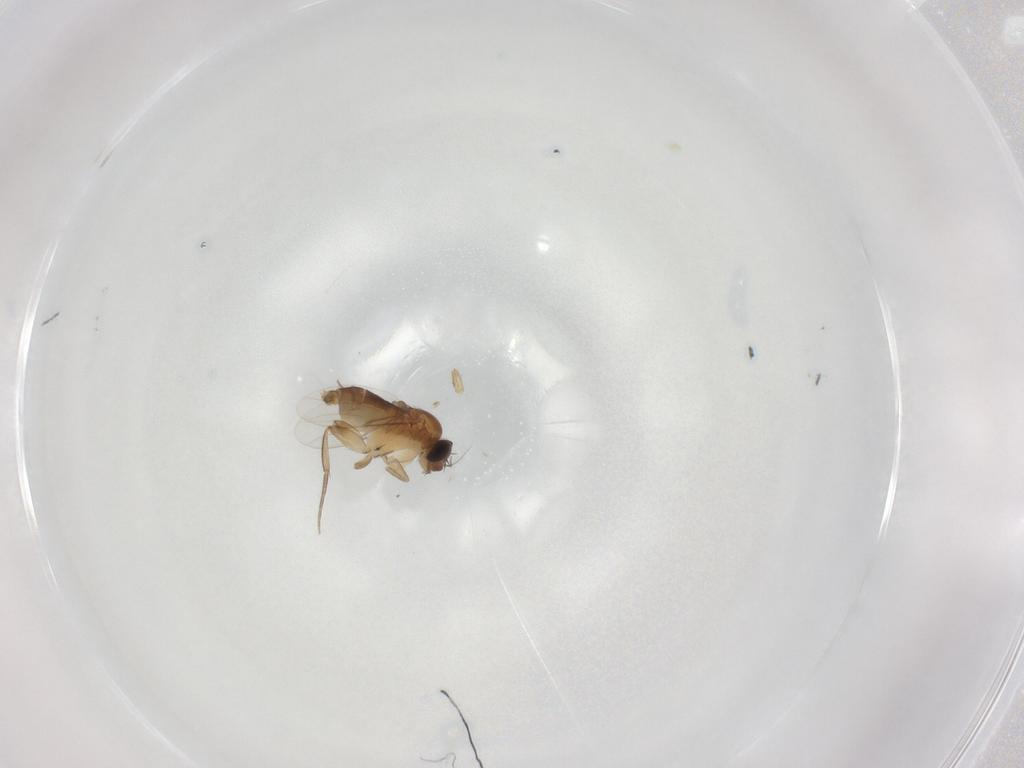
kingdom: Animalia
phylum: Arthropoda
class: Insecta
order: Diptera
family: Phoridae
